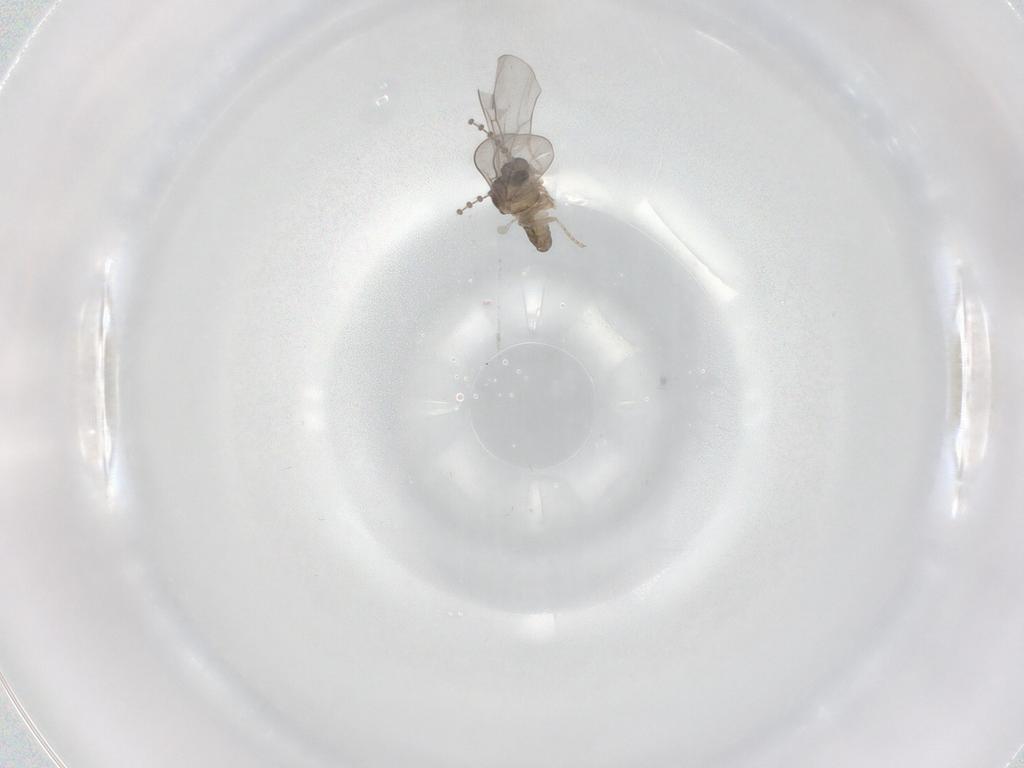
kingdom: Animalia
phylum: Arthropoda
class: Insecta
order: Diptera
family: Cecidomyiidae
